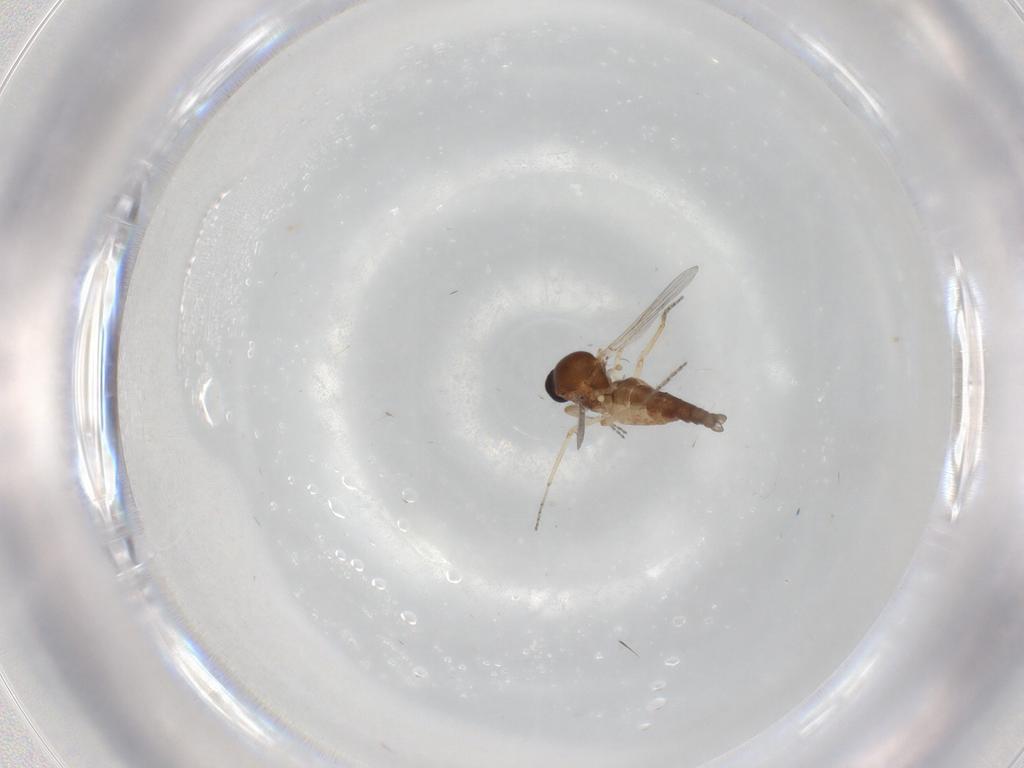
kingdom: Animalia
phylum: Arthropoda
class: Insecta
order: Diptera
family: Ceratopogonidae
